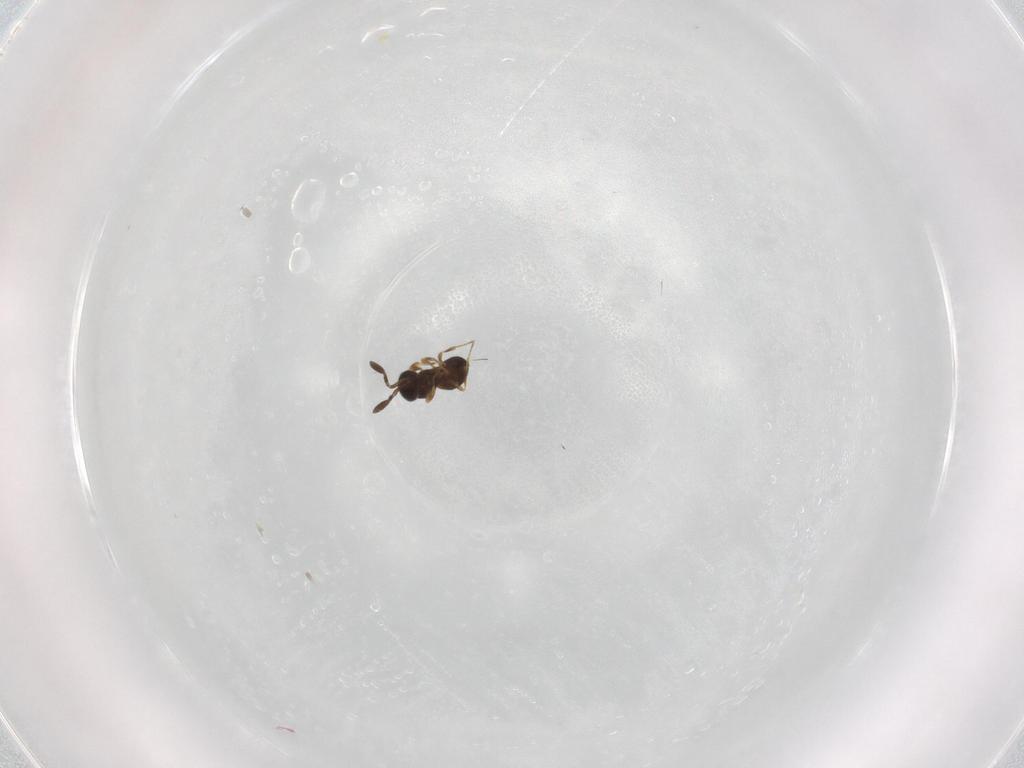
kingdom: Animalia
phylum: Arthropoda
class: Insecta
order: Hymenoptera
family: Scelionidae
